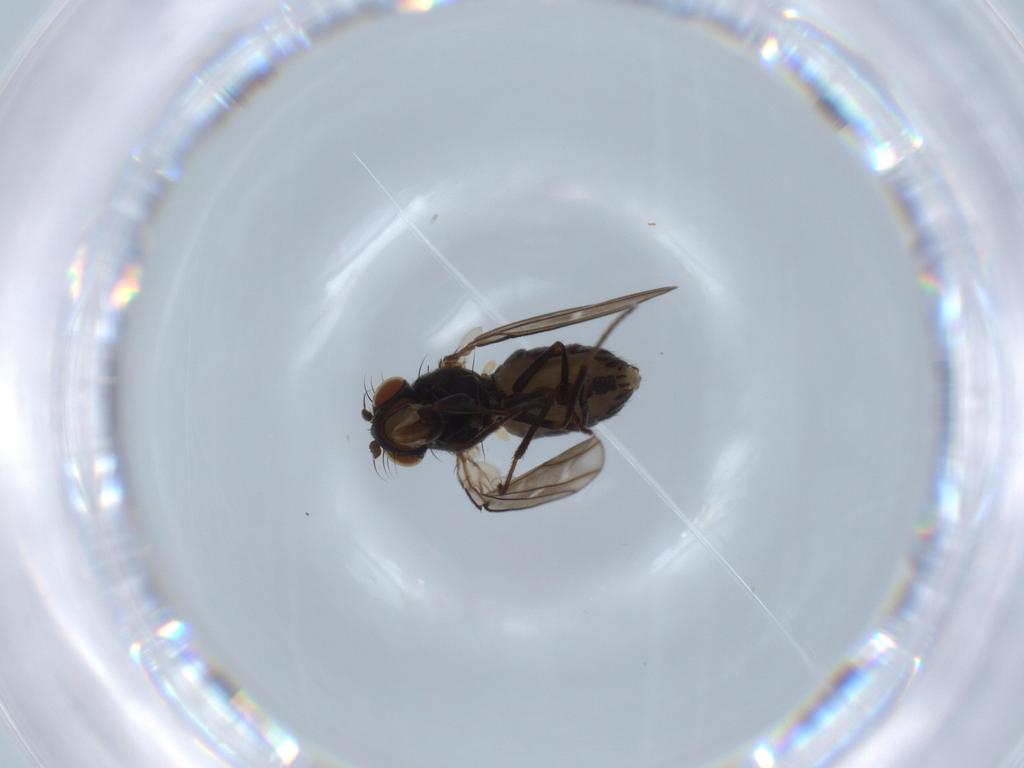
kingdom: Animalia
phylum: Arthropoda
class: Insecta
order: Diptera
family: Ephydridae
